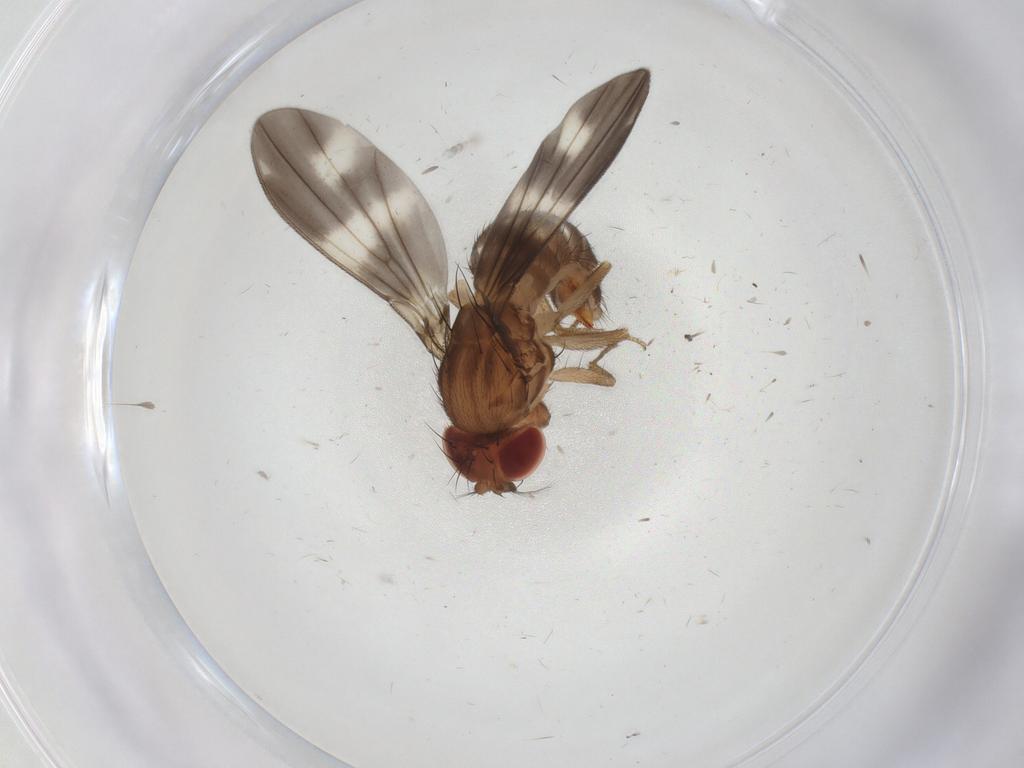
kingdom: Animalia
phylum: Arthropoda
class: Insecta
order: Diptera
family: Drosophilidae
